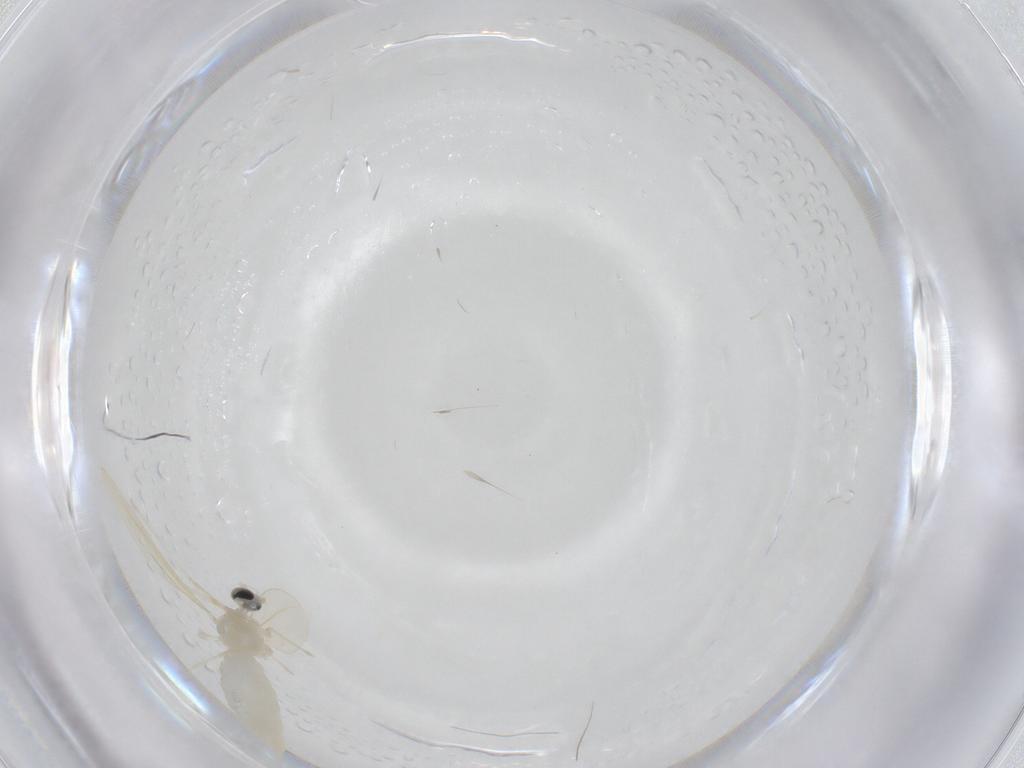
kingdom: Animalia
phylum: Arthropoda
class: Insecta
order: Diptera
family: Cecidomyiidae
